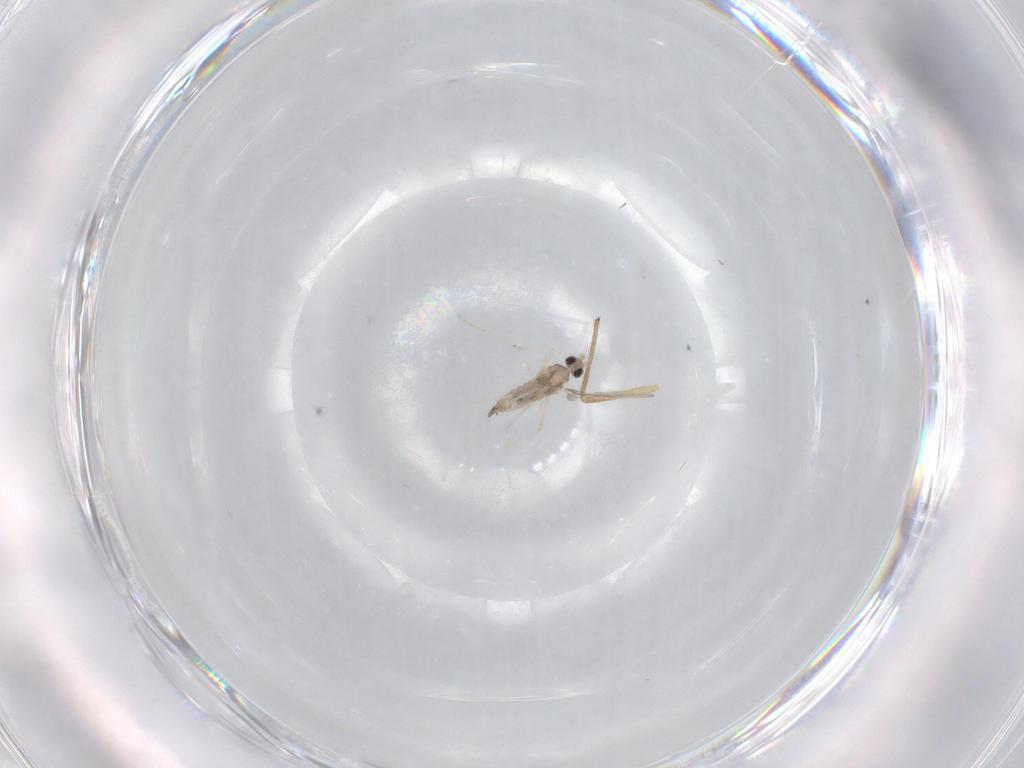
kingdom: Animalia
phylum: Arthropoda
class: Insecta
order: Diptera
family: Cecidomyiidae
